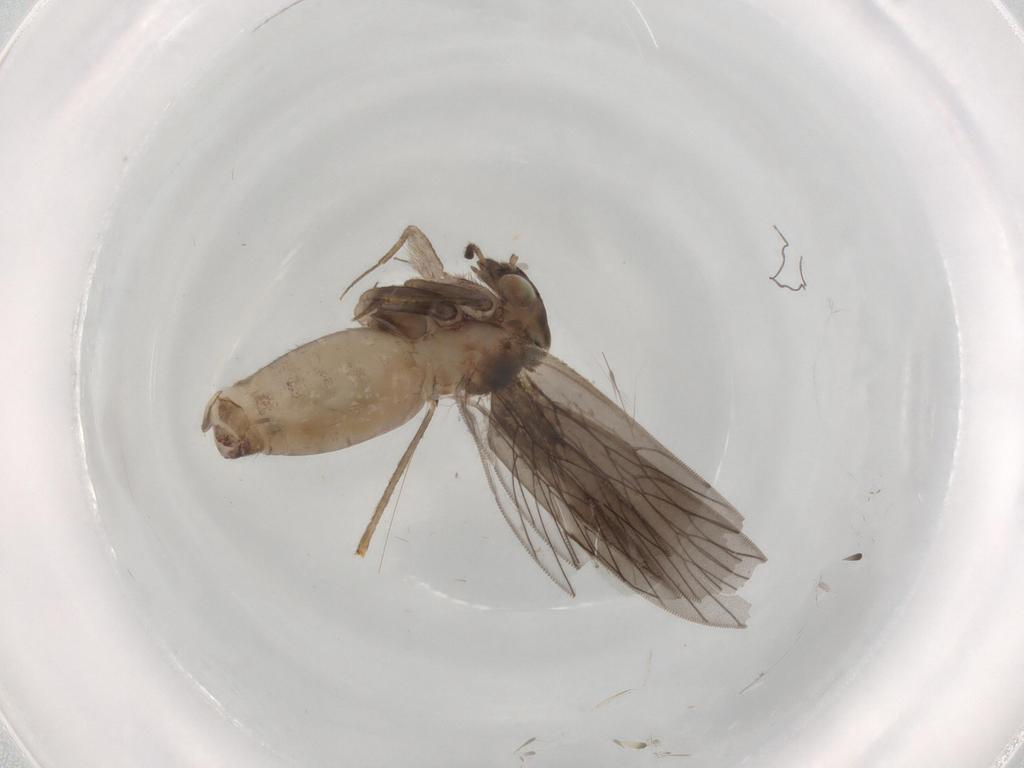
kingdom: Animalia
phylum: Arthropoda
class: Insecta
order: Psocodea
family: Lepidopsocidae
